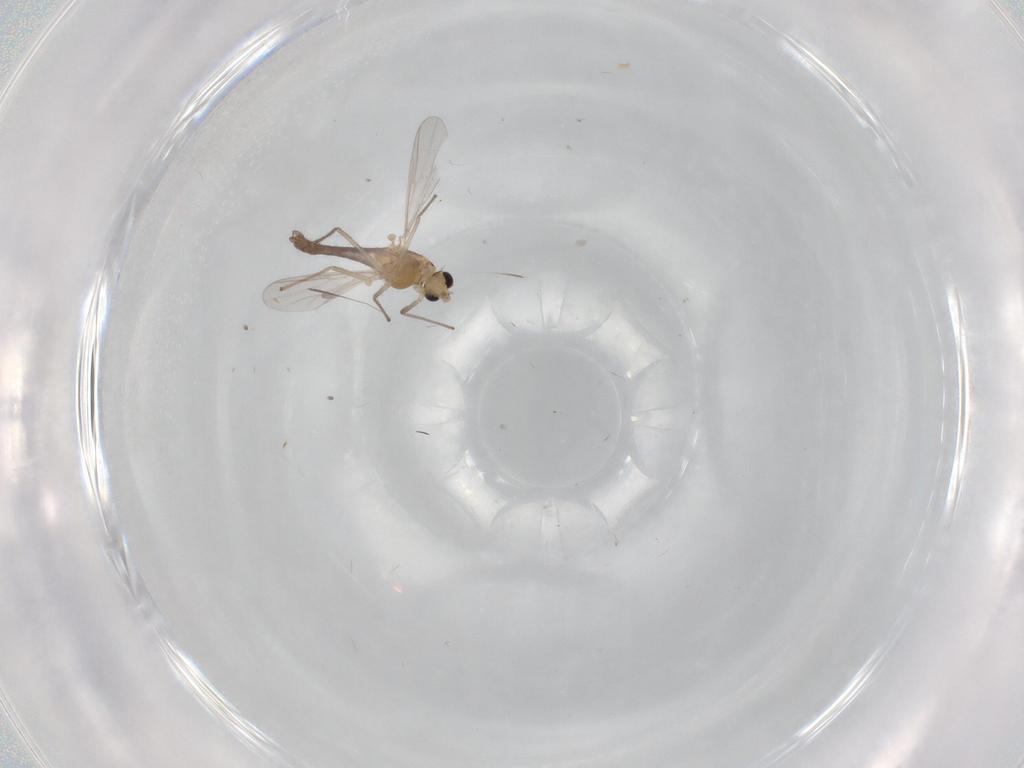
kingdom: Animalia
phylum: Arthropoda
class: Insecta
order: Diptera
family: Chironomidae
